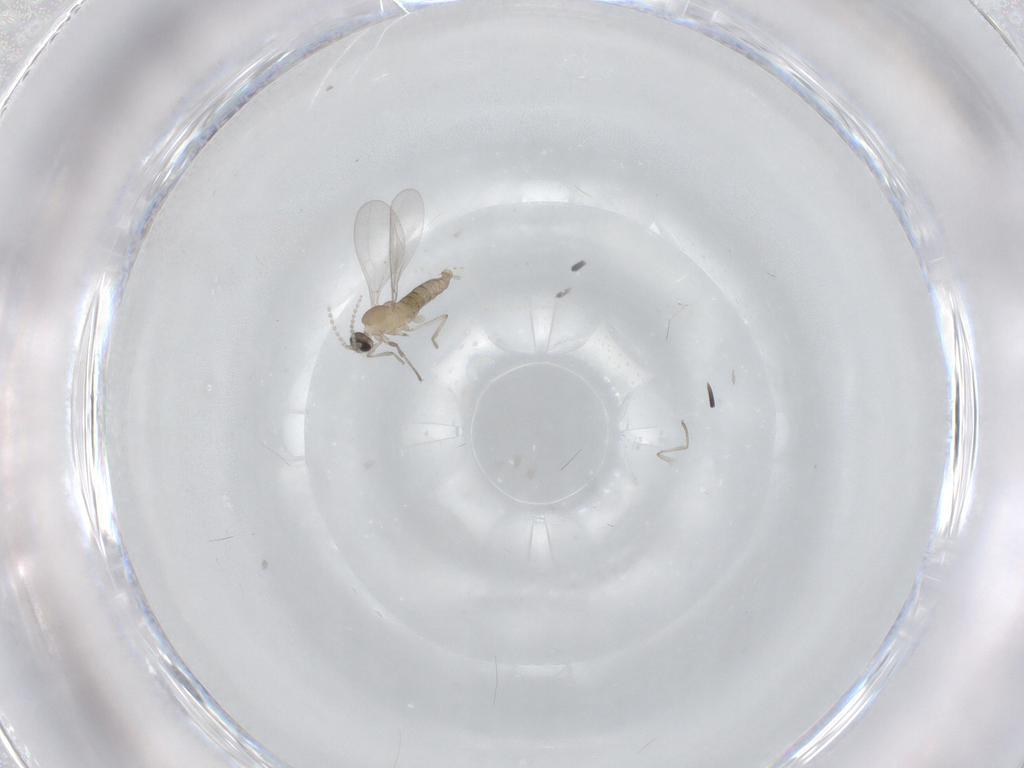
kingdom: Animalia
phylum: Arthropoda
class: Insecta
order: Diptera
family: Cecidomyiidae
